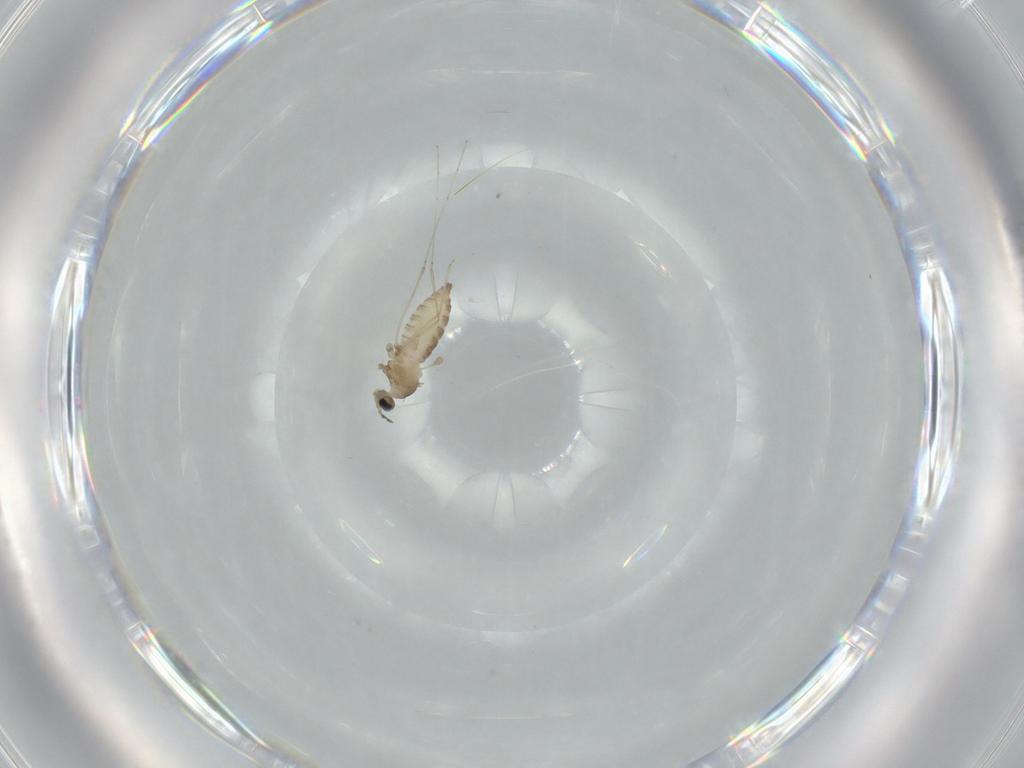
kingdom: Animalia
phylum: Arthropoda
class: Insecta
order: Diptera
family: Cecidomyiidae
